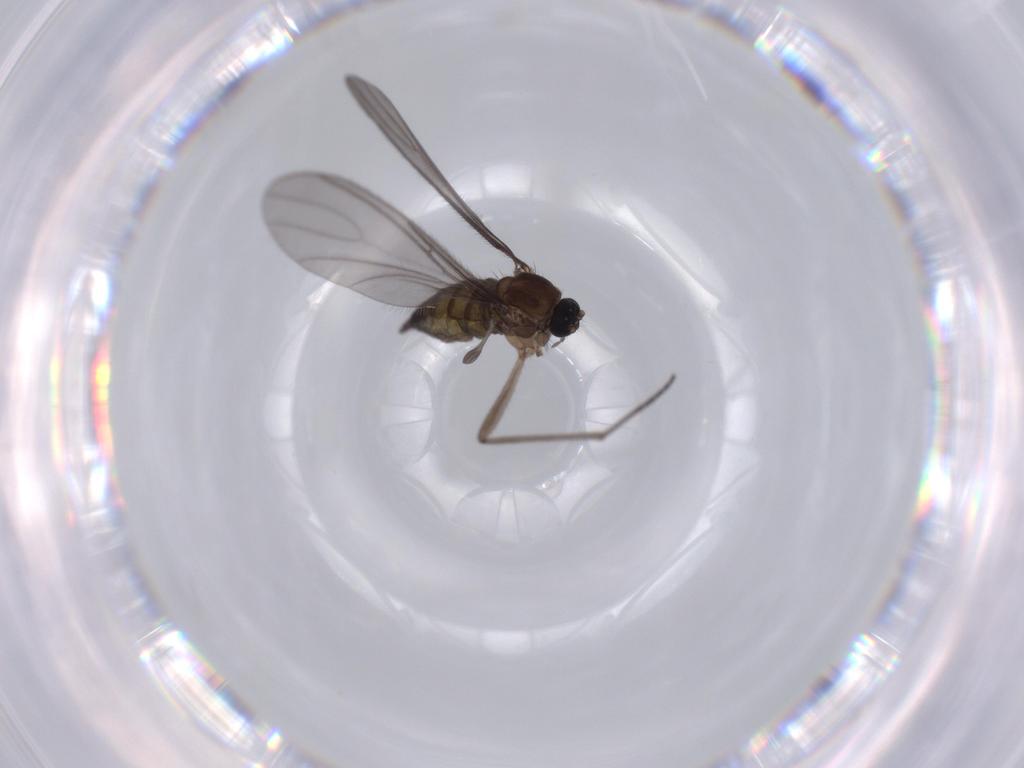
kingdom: Animalia
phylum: Arthropoda
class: Insecta
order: Diptera
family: Sciaridae
